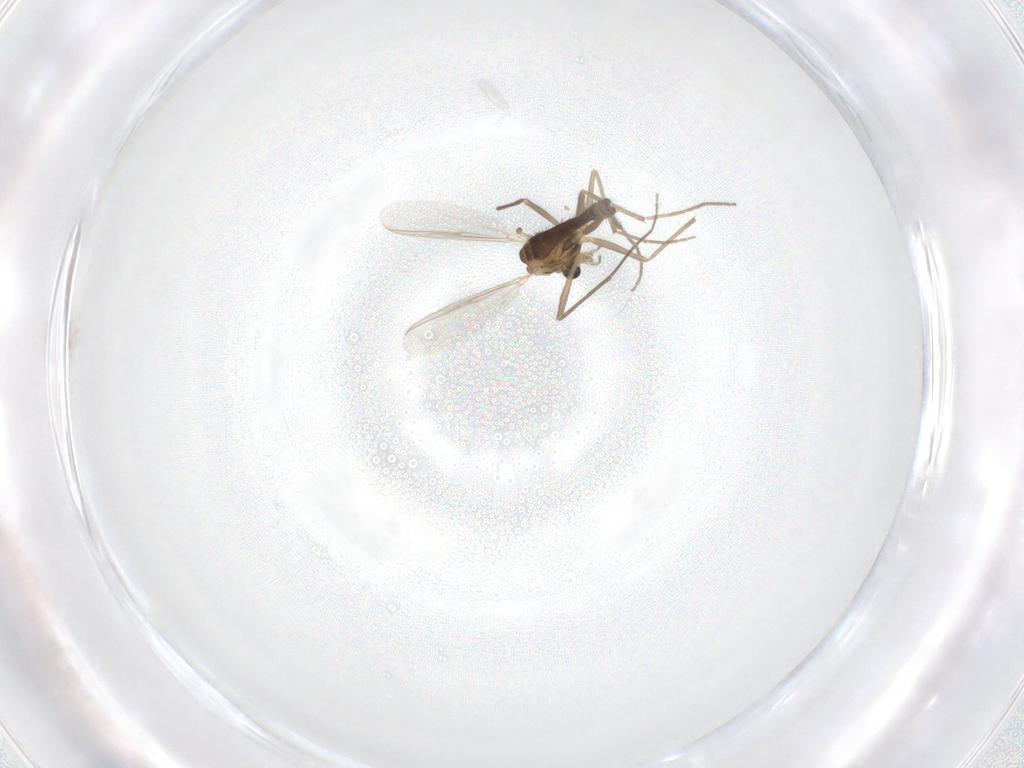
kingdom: Animalia
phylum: Arthropoda
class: Insecta
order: Diptera
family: Chironomidae
